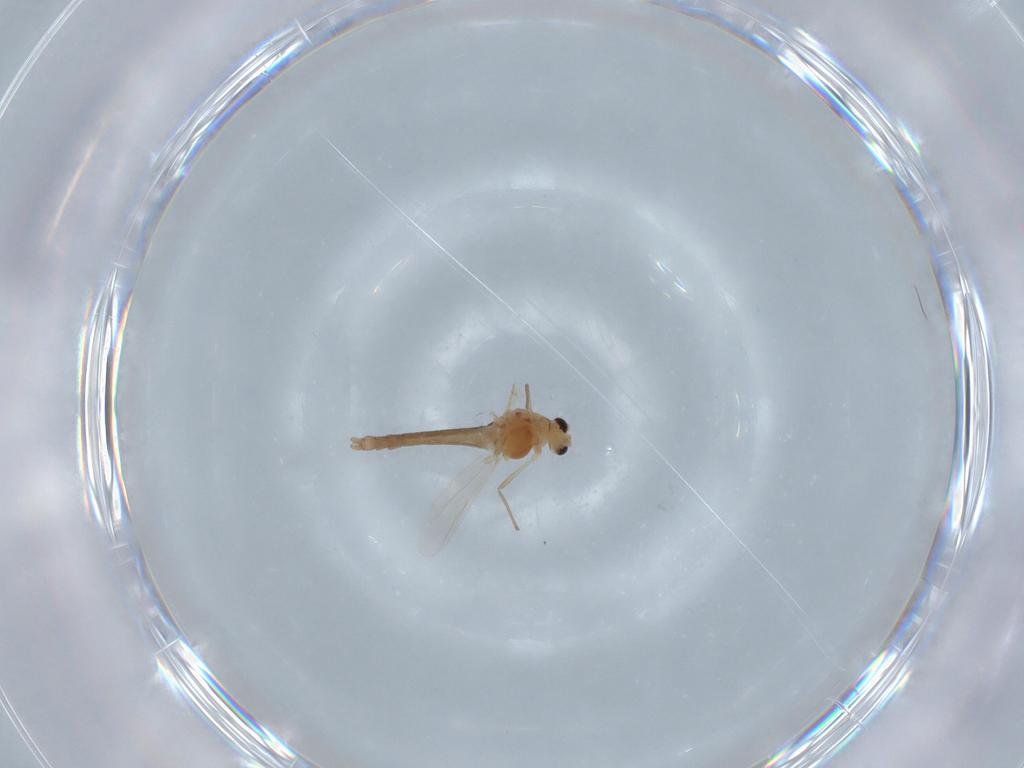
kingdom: Animalia
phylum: Arthropoda
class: Insecta
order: Diptera
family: Chironomidae
